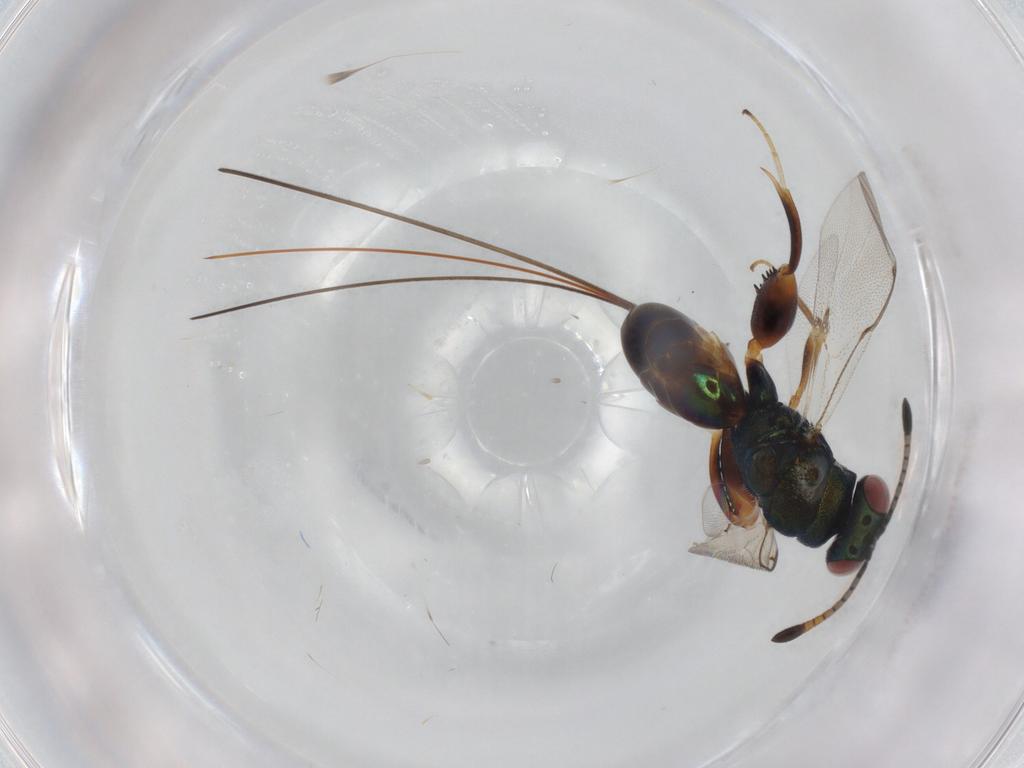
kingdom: Animalia
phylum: Arthropoda
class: Insecta
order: Hymenoptera
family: Torymidae
